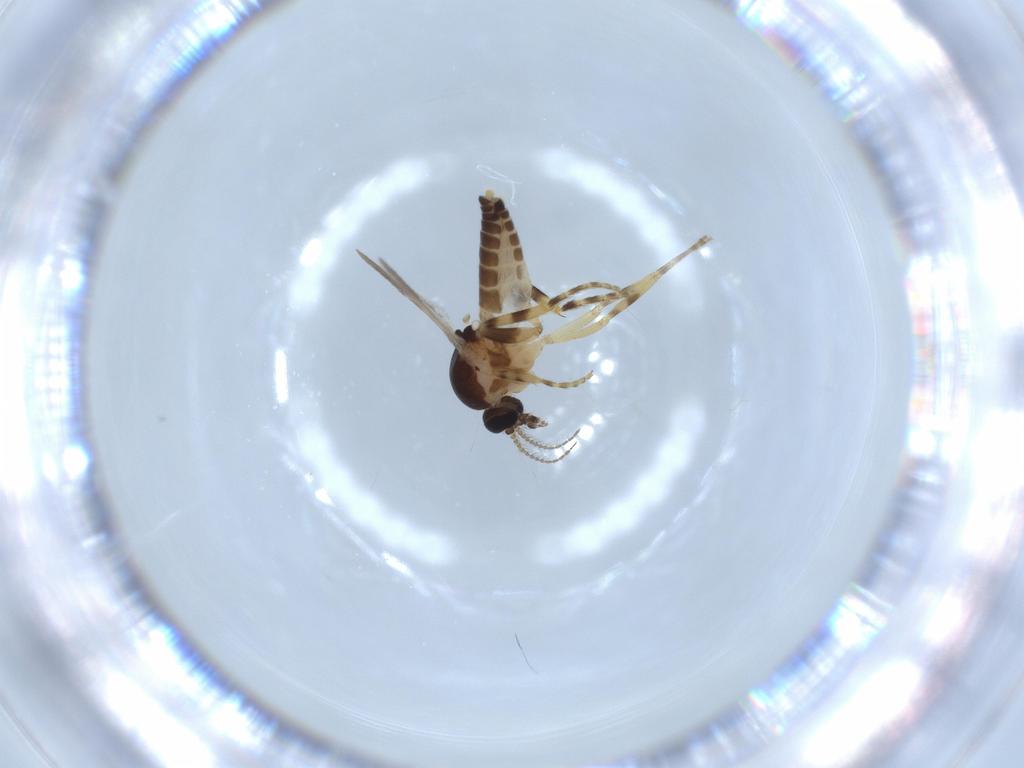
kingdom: Animalia
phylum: Arthropoda
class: Insecta
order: Diptera
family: Ceratopogonidae
